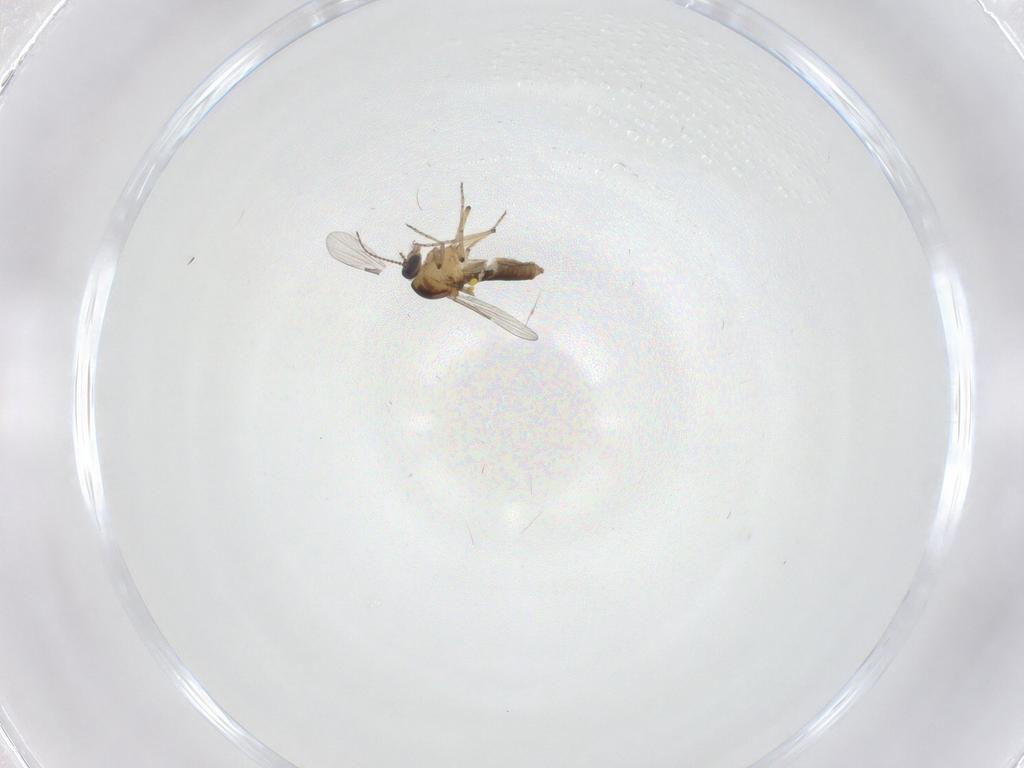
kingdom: Animalia
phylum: Arthropoda
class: Insecta
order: Diptera
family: Ceratopogonidae
